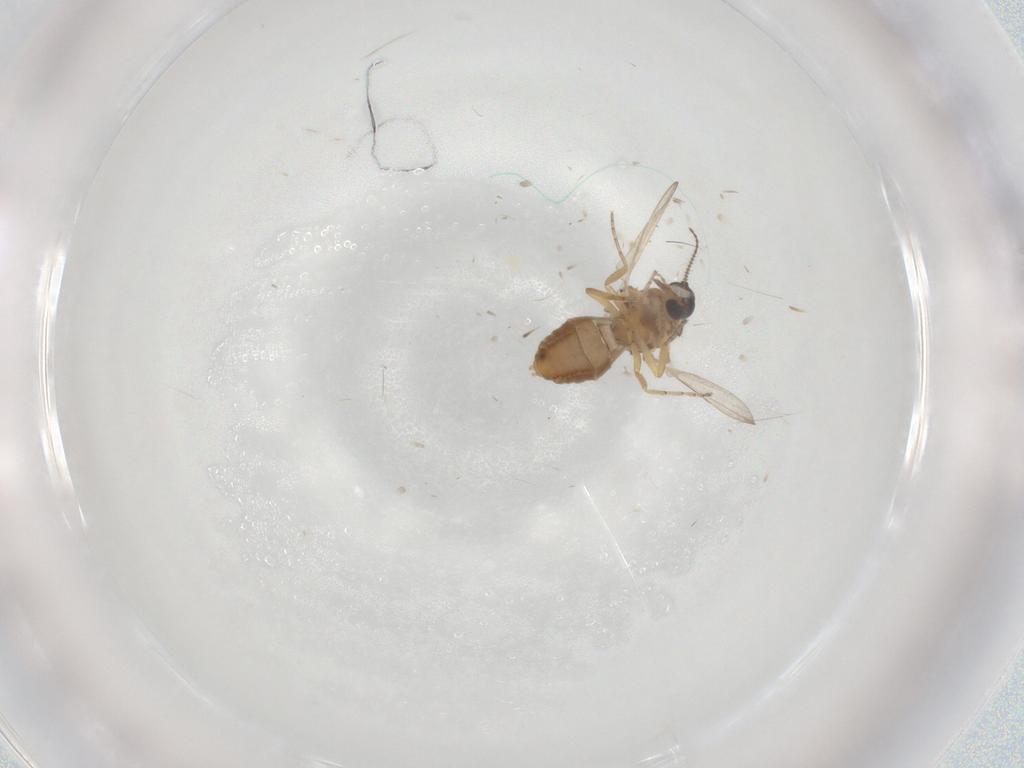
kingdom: Animalia
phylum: Arthropoda
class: Insecta
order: Diptera
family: Ceratopogonidae
